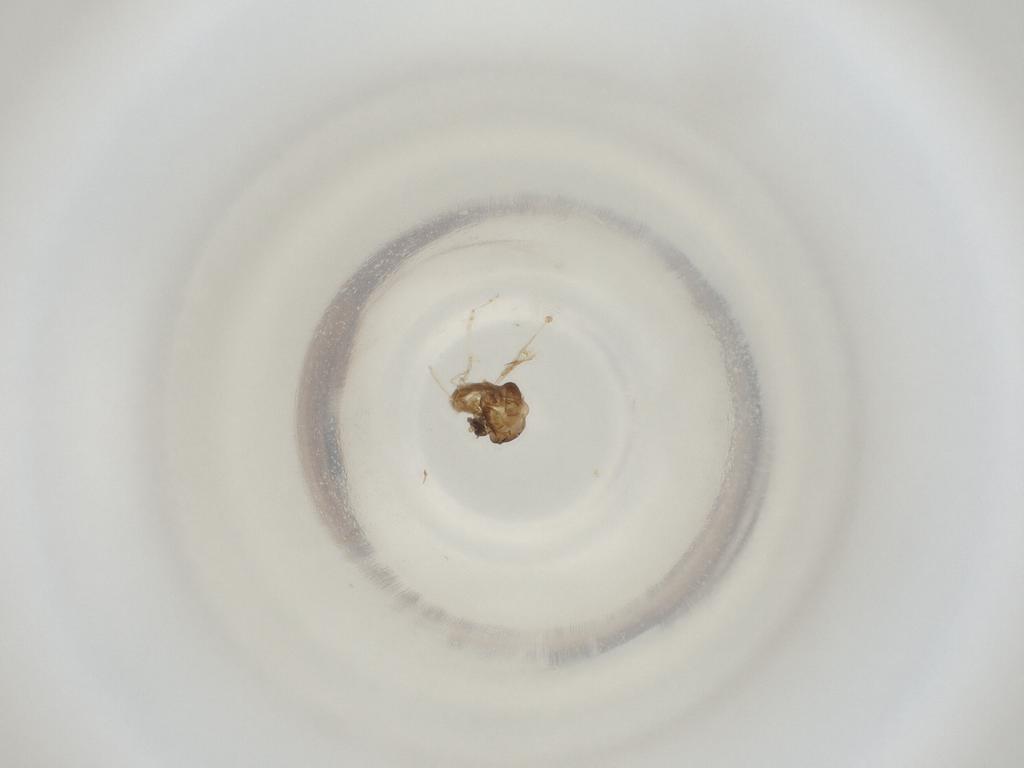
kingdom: Animalia
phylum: Arthropoda
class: Insecta
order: Diptera
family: Cecidomyiidae
